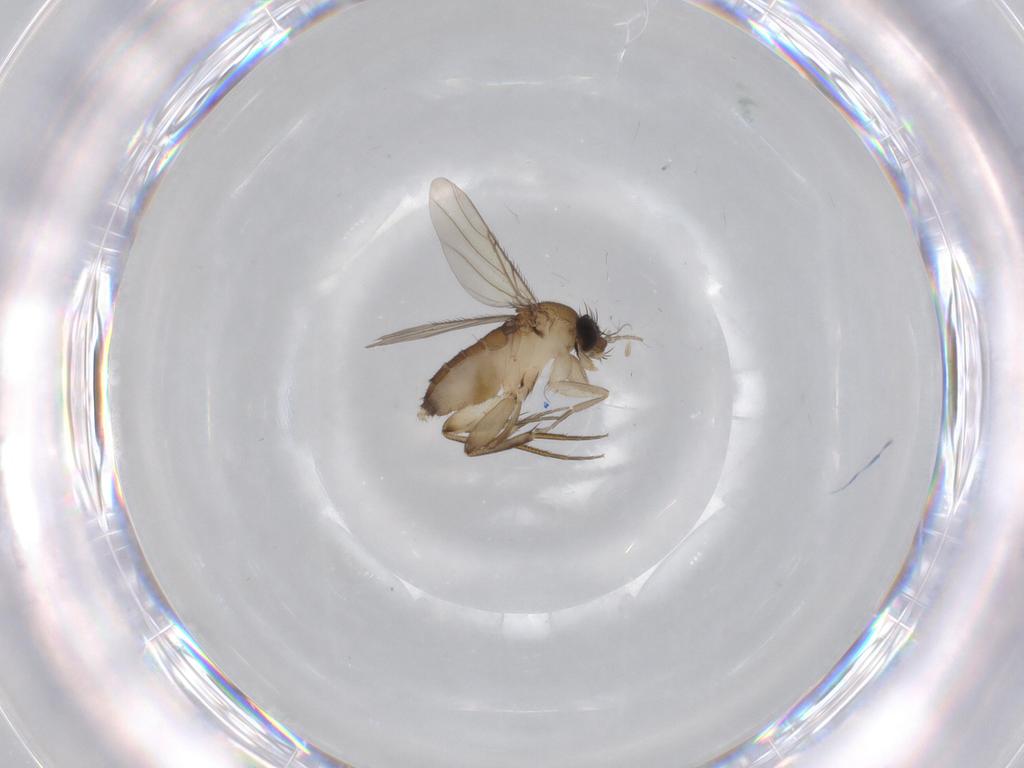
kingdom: Animalia
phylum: Arthropoda
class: Insecta
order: Diptera
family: Phoridae
